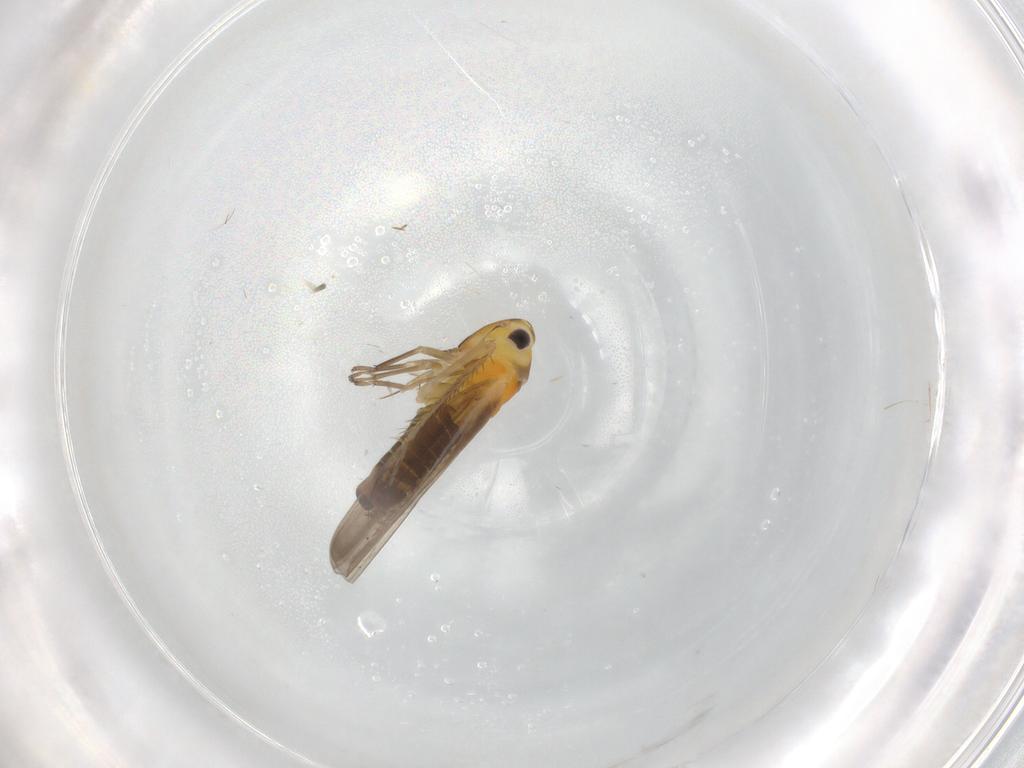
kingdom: Animalia
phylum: Arthropoda
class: Insecta
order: Hemiptera
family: Cicadellidae
